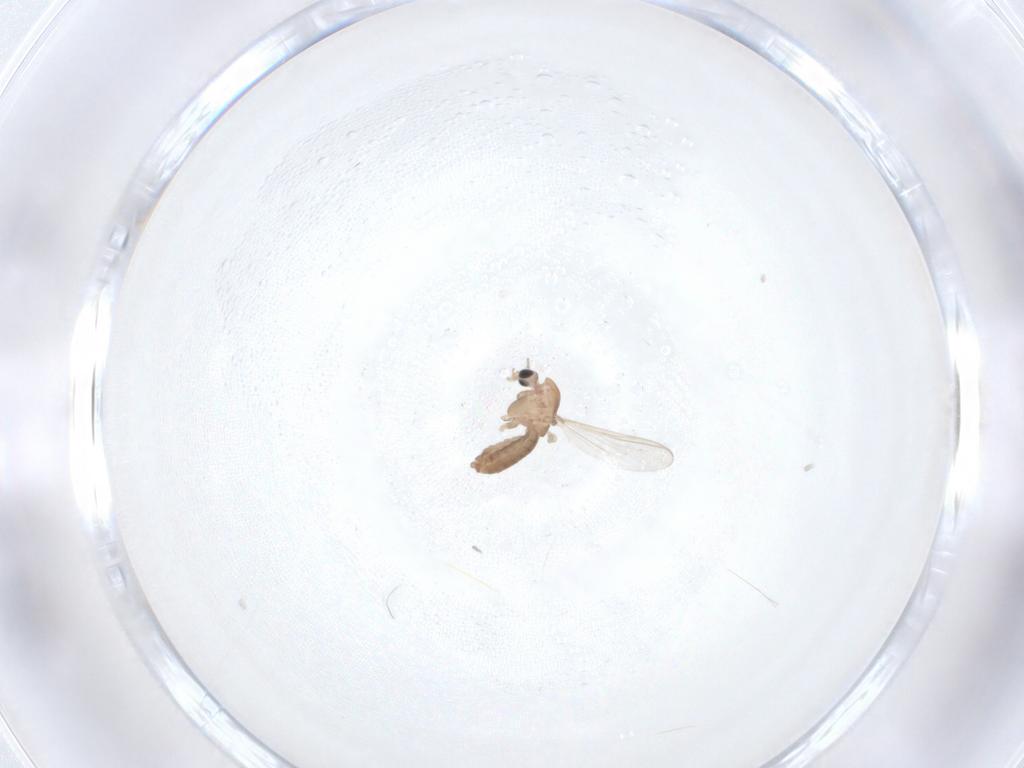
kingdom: Animalia
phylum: Arthropoda
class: Insecta
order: Diptera
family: Chironomidae
